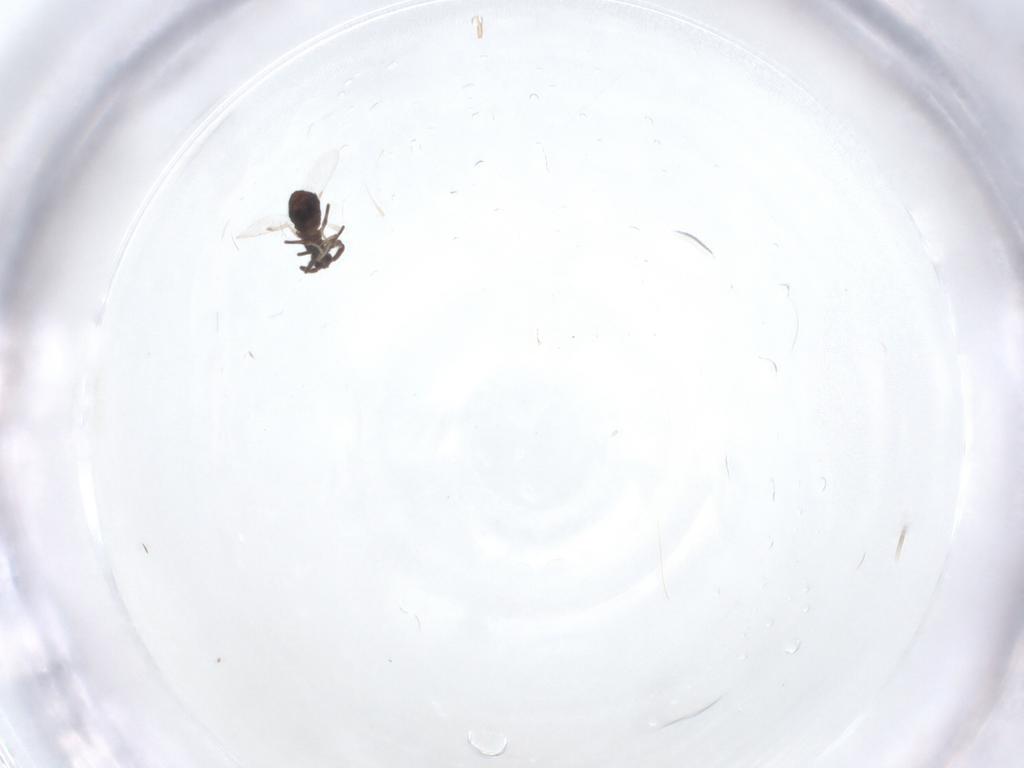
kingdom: Animalia
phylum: Arthropoda
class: Insecta
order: Diptera
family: Scatopsidae
